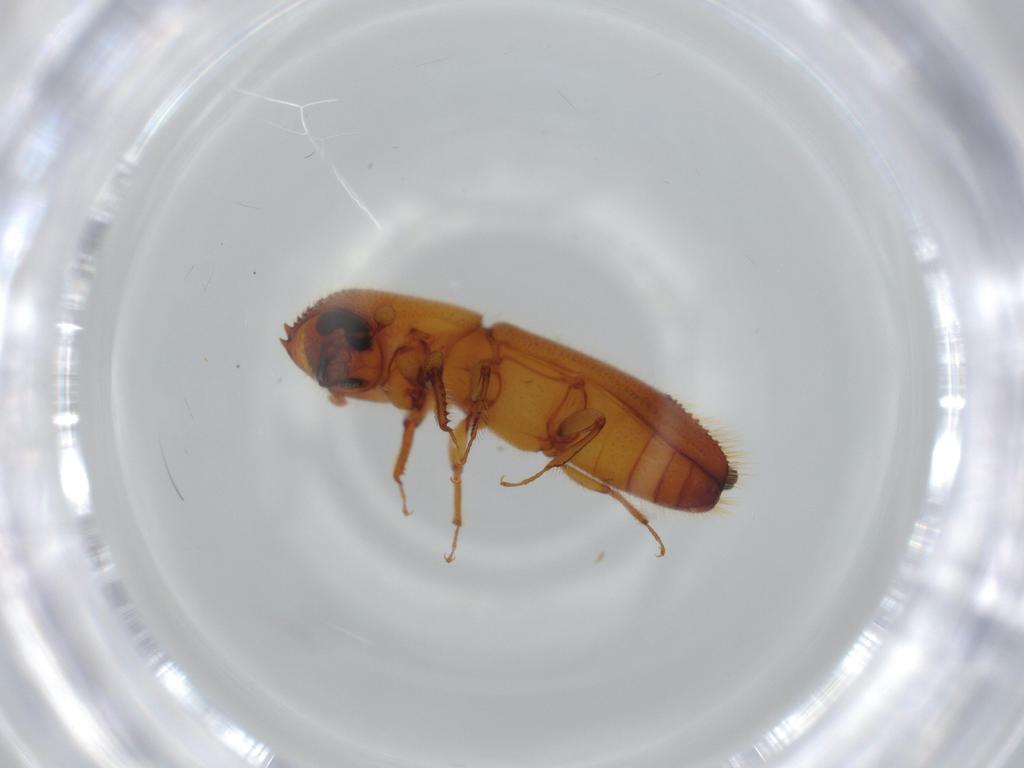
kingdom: Animalia
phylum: Arthropoda
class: Insecta
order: Coleoptera
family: Curculionidae
